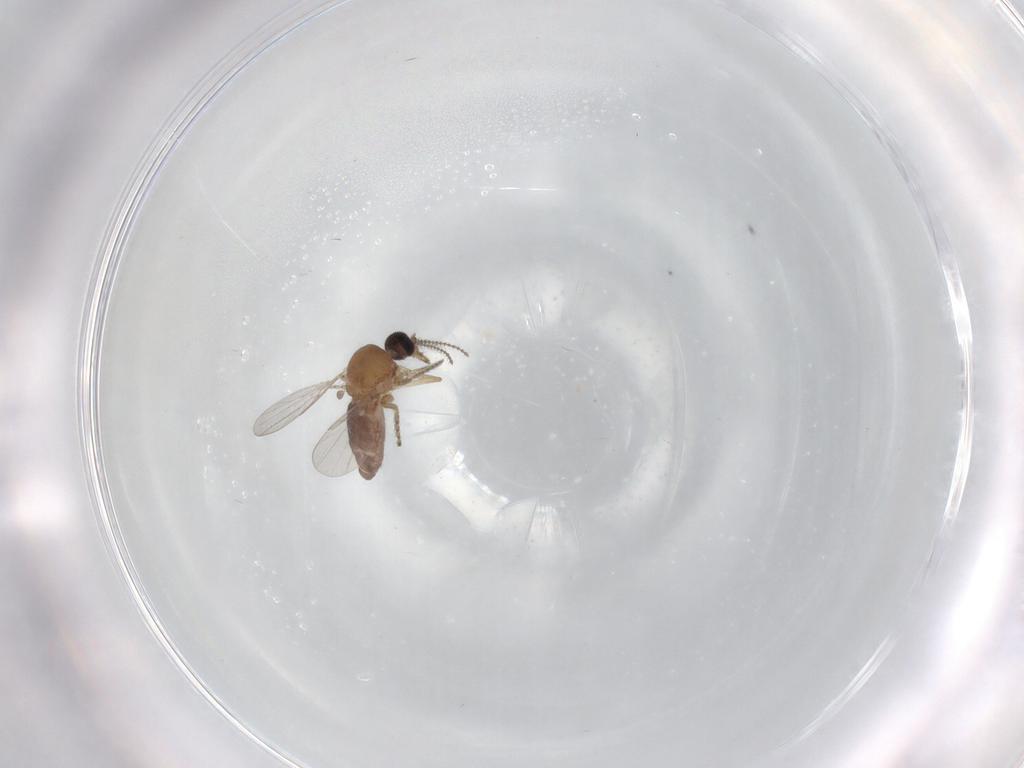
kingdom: Animalia
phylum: Arthropoda
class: Insecta
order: Diptera
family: Ceratopogonidae
